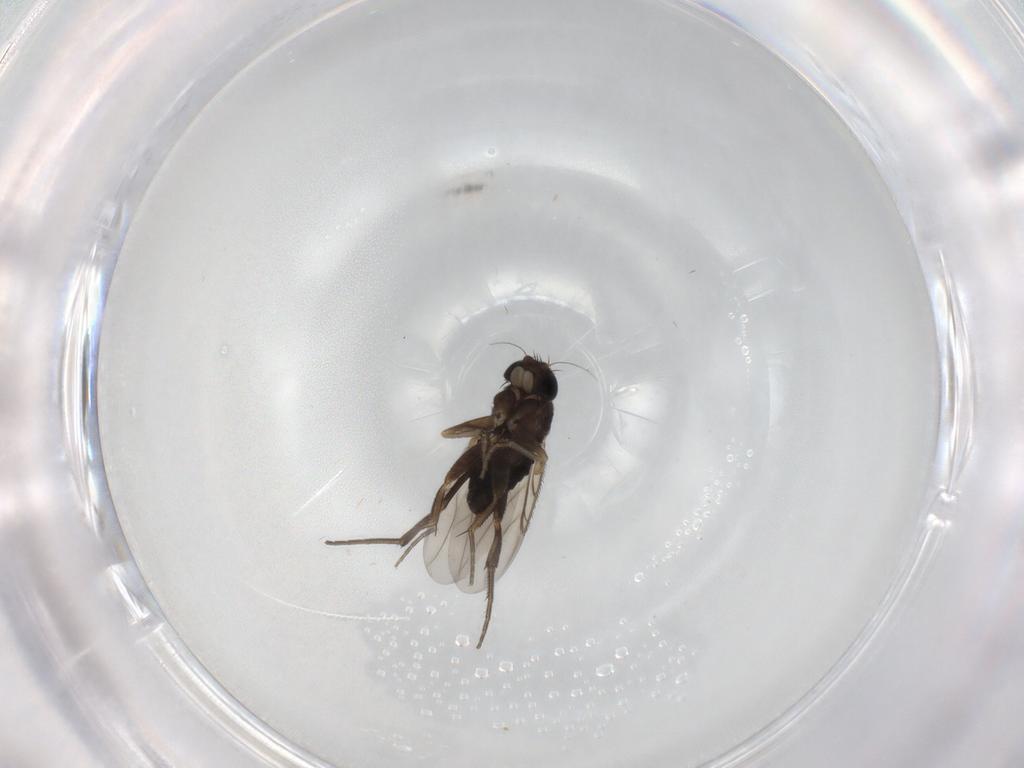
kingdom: Animalia
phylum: Arthropoda
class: Insecta
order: Diptera
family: Phoridae
